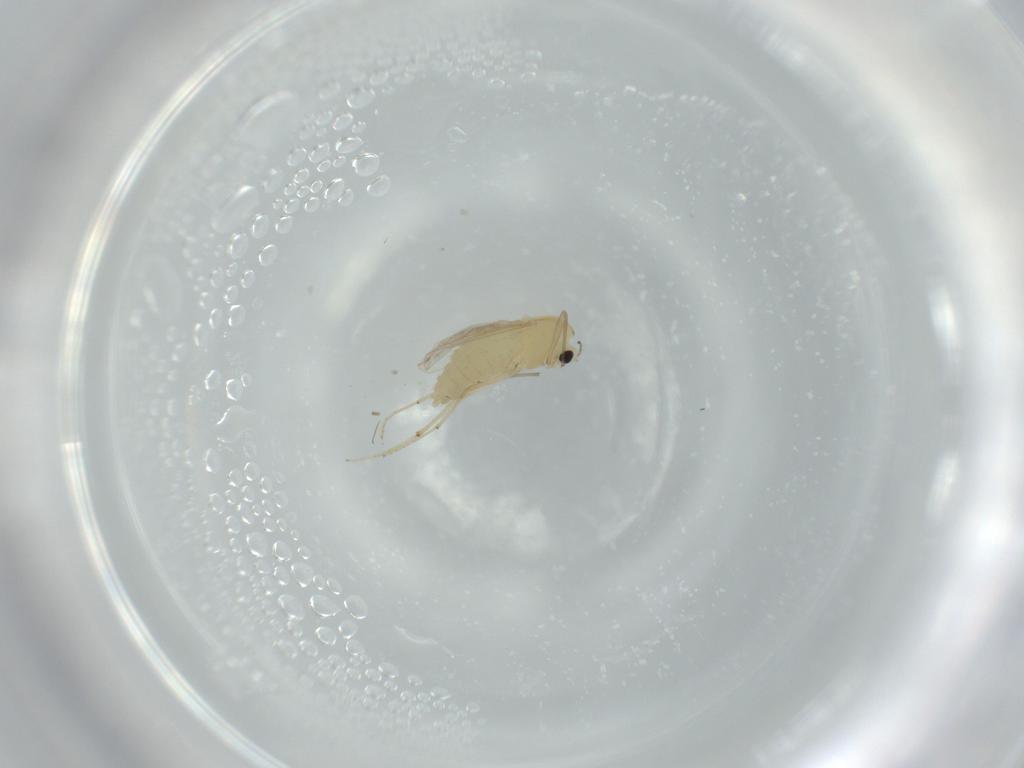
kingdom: Animalia
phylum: Arthropoda
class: Insecta
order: Diptera
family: Chironomidae
